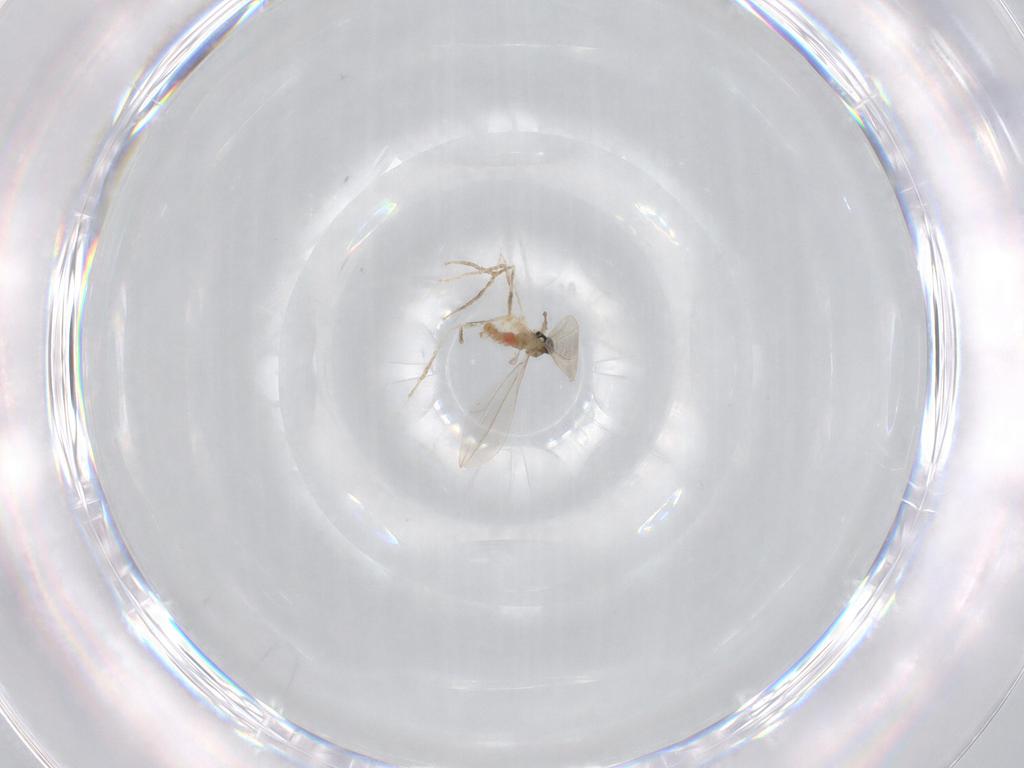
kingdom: Animalia
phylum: Arthropoda
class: Insecta
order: Diptera
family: Cecidomyiidae
